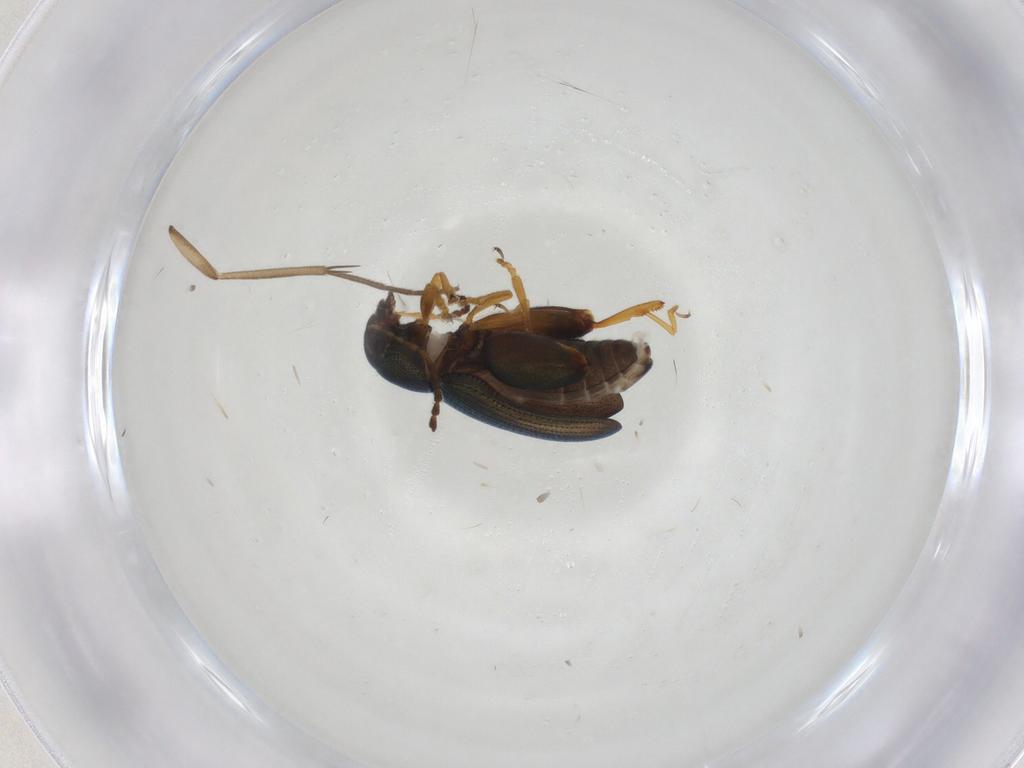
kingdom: Animalia
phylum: Arthropoda
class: Insecta
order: Coleoptera
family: Chrysomelidae
